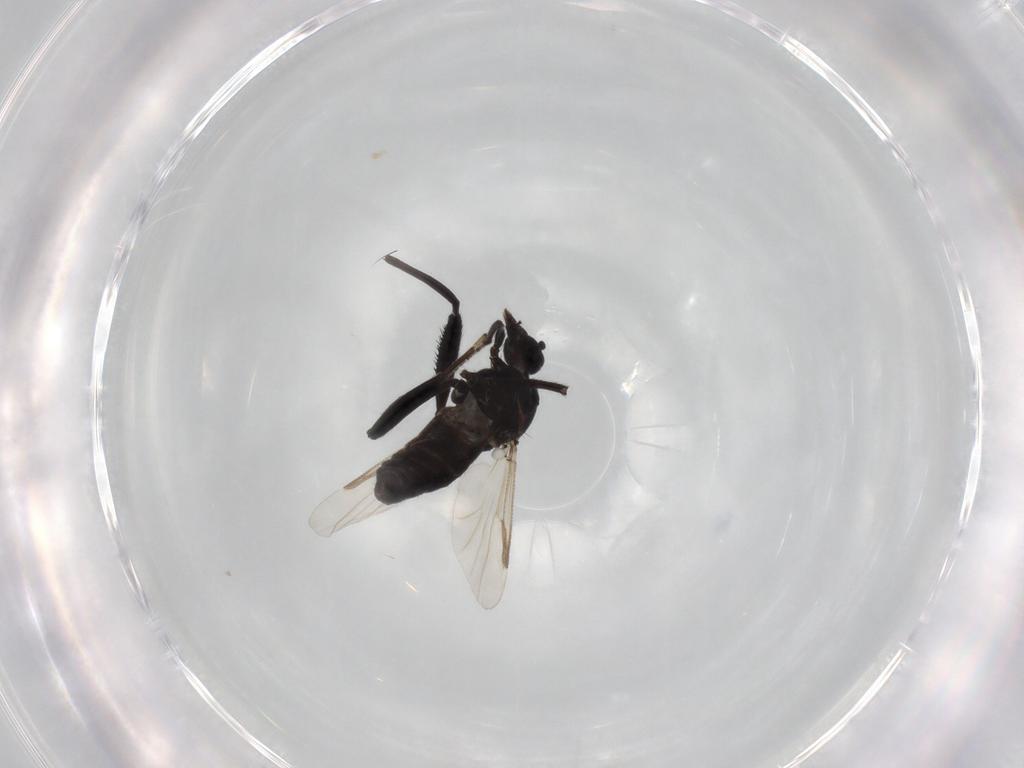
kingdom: Animalia
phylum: Arthropoda
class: Insecta
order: Diptera
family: Ceratopogonidae
